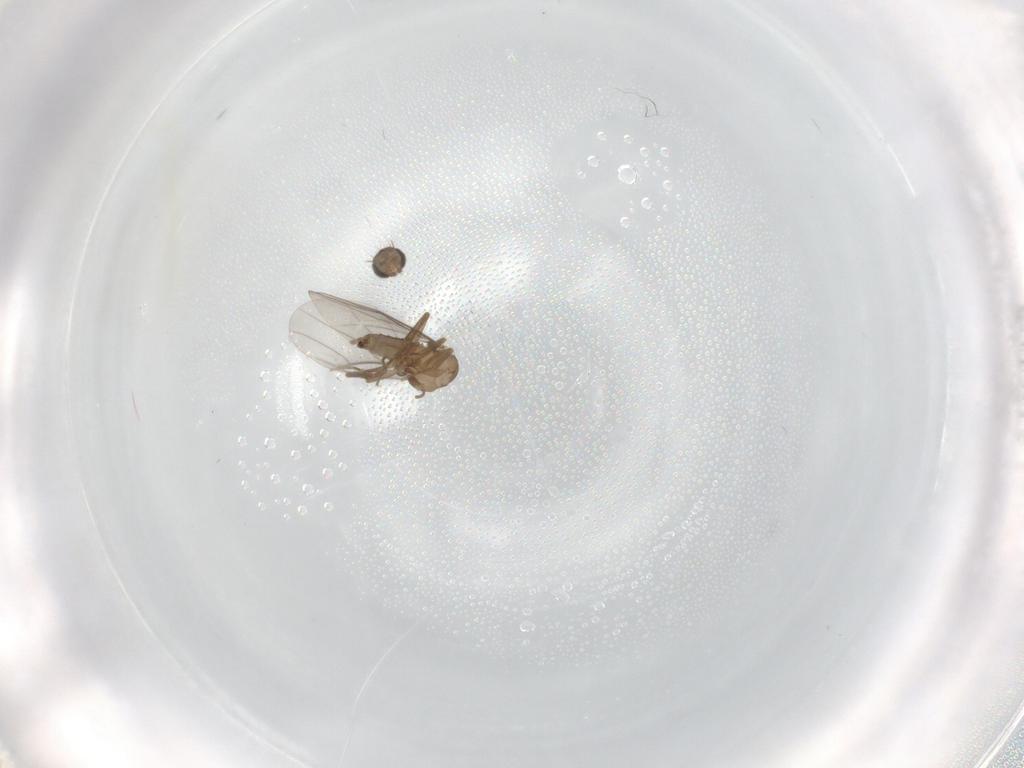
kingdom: Animalia
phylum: Arthropoda
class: Insecta
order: Diptera
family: Sciaridae
